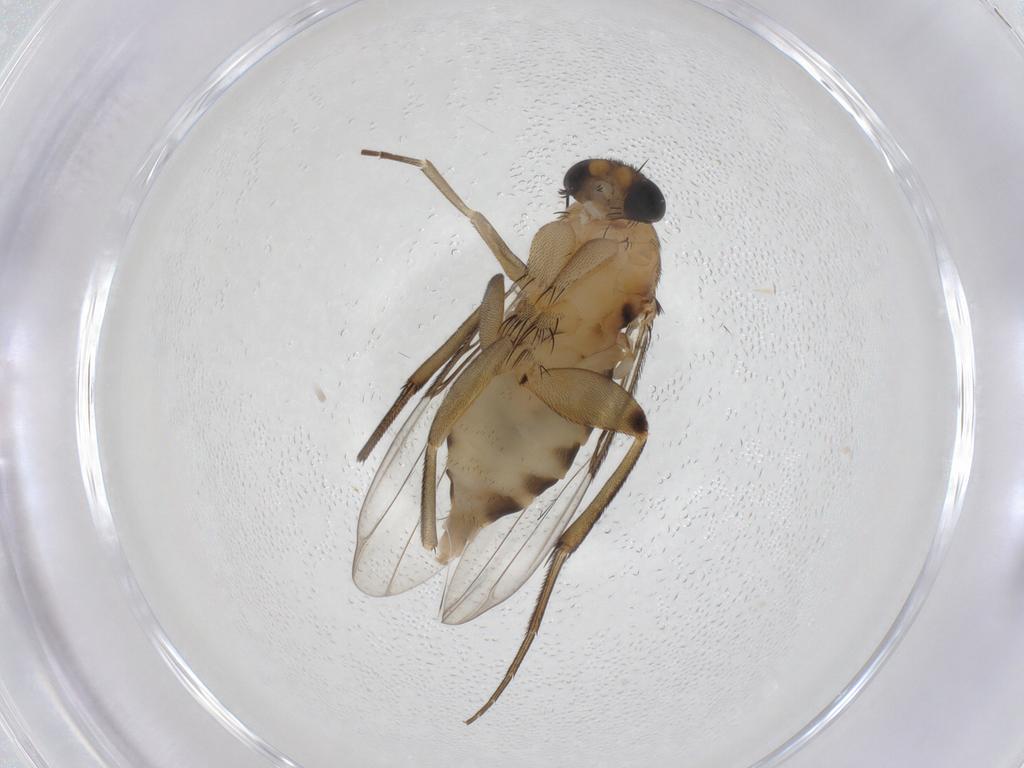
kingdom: Animalia
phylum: Arthropoda
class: Insecta
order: Diptera
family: Phoridae
